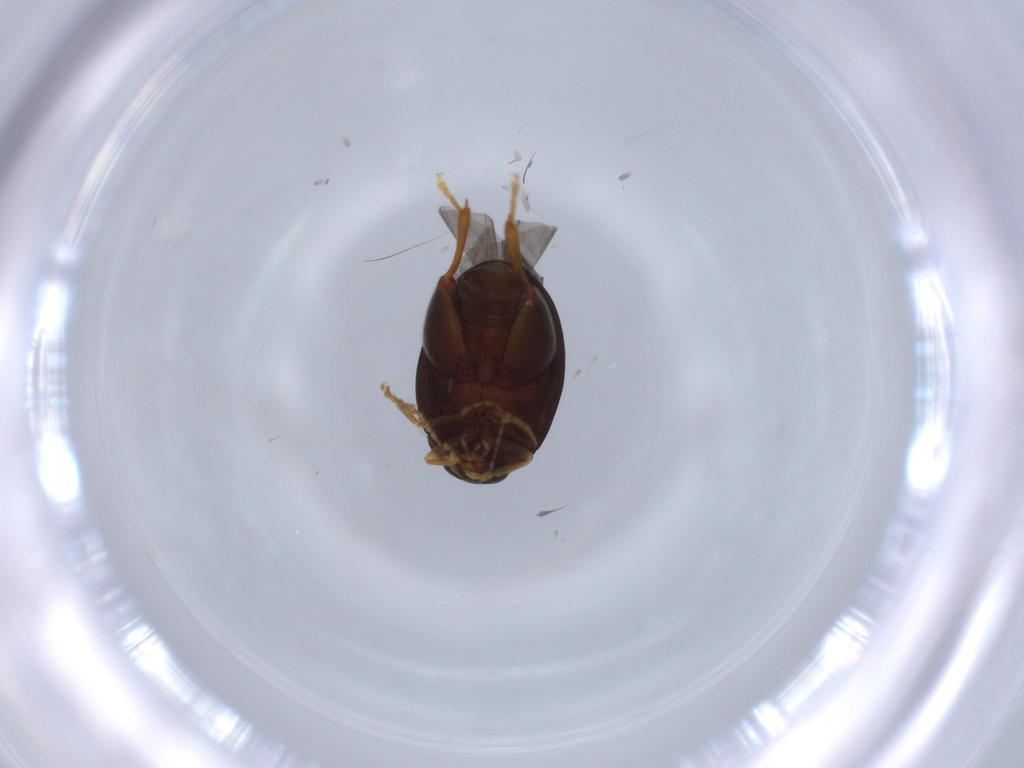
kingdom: Animalia
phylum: Arthropoda
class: Insecta
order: Coleoptera
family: Chrysomelidae
